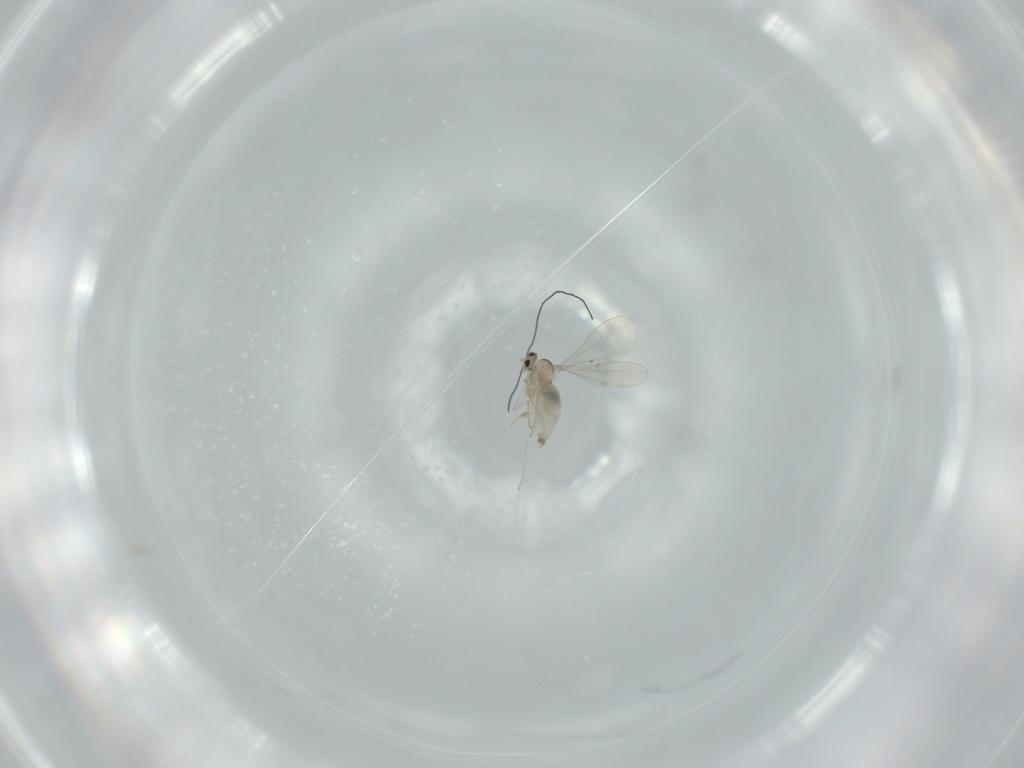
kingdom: Animalia
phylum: Arthropoda
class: Insecta
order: Diptera
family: Cecidomyiidae
